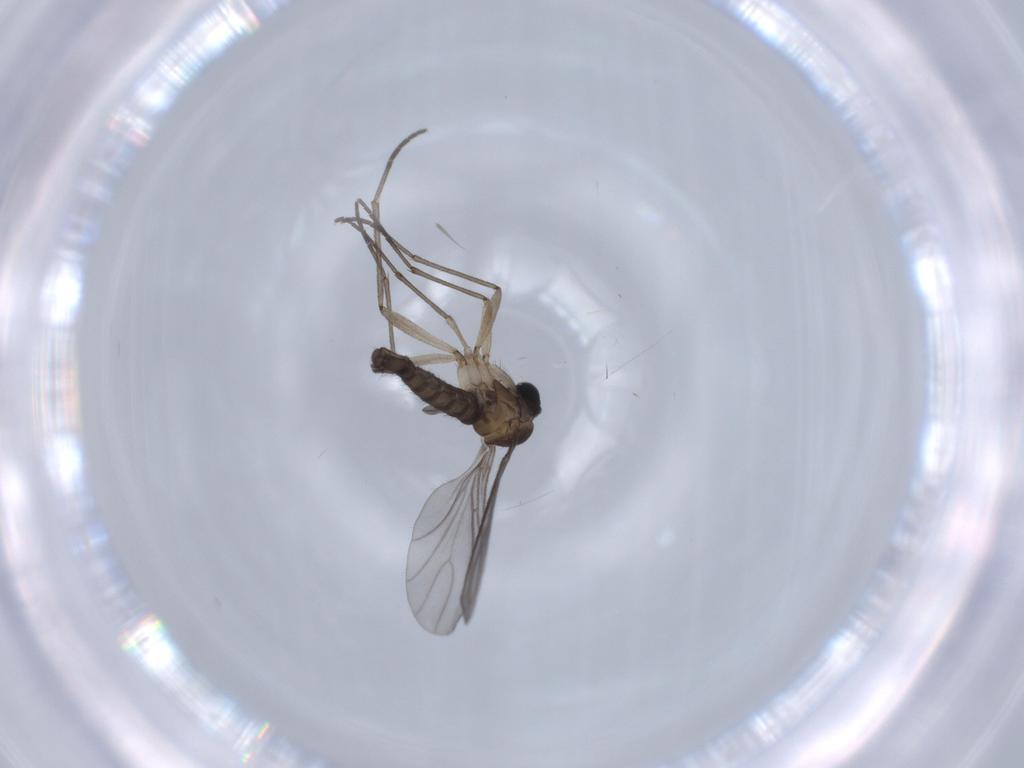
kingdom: Animalia
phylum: Arthropoda
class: Insecta
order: Diptera
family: Sciaridae
